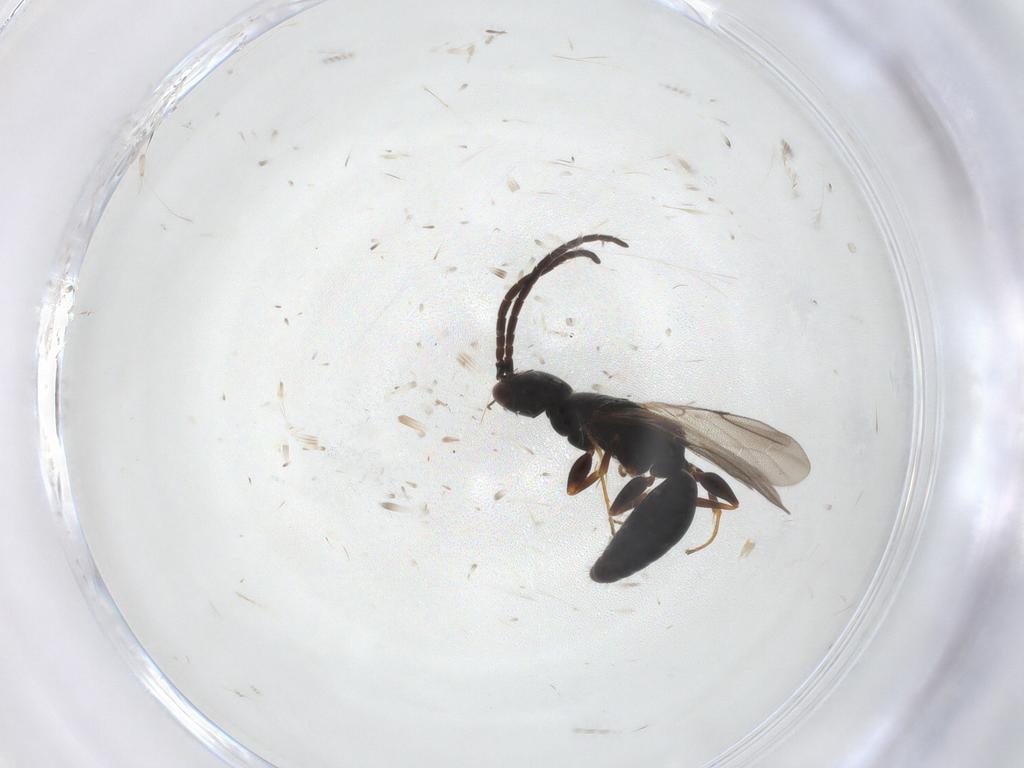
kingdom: Animalia
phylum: Arthropoda
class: Insecta
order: Hymenoptera
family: Bethylidae
